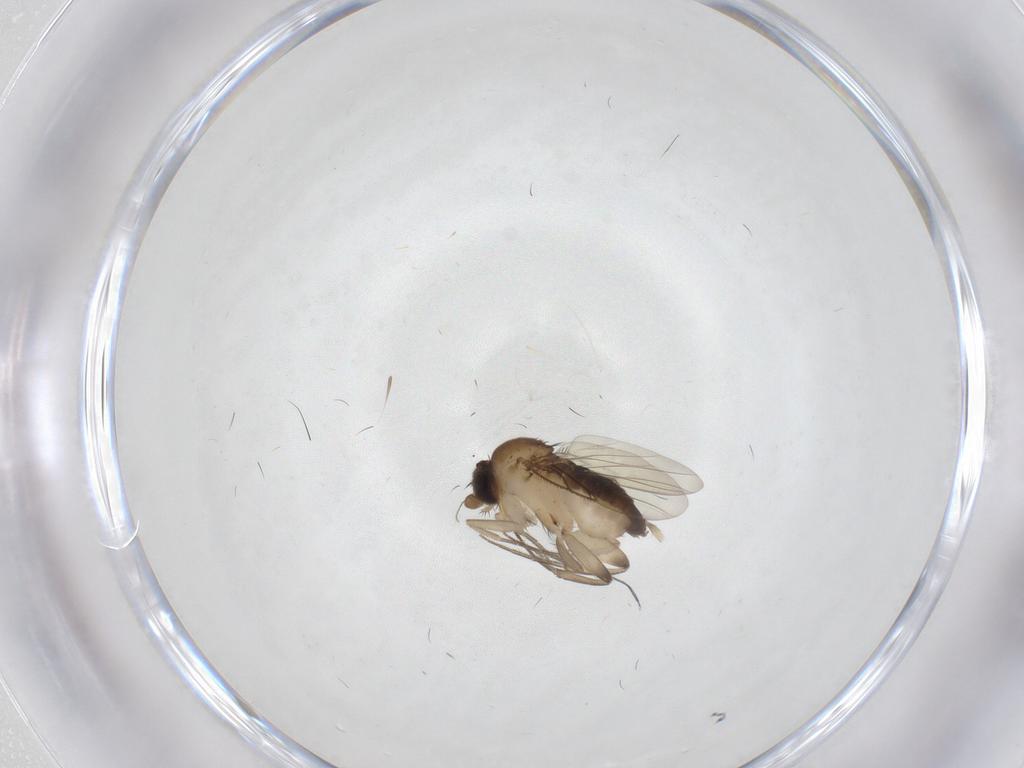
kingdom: Animalia
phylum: Arthropoda
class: Insecta
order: Diptera
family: Phoridae
